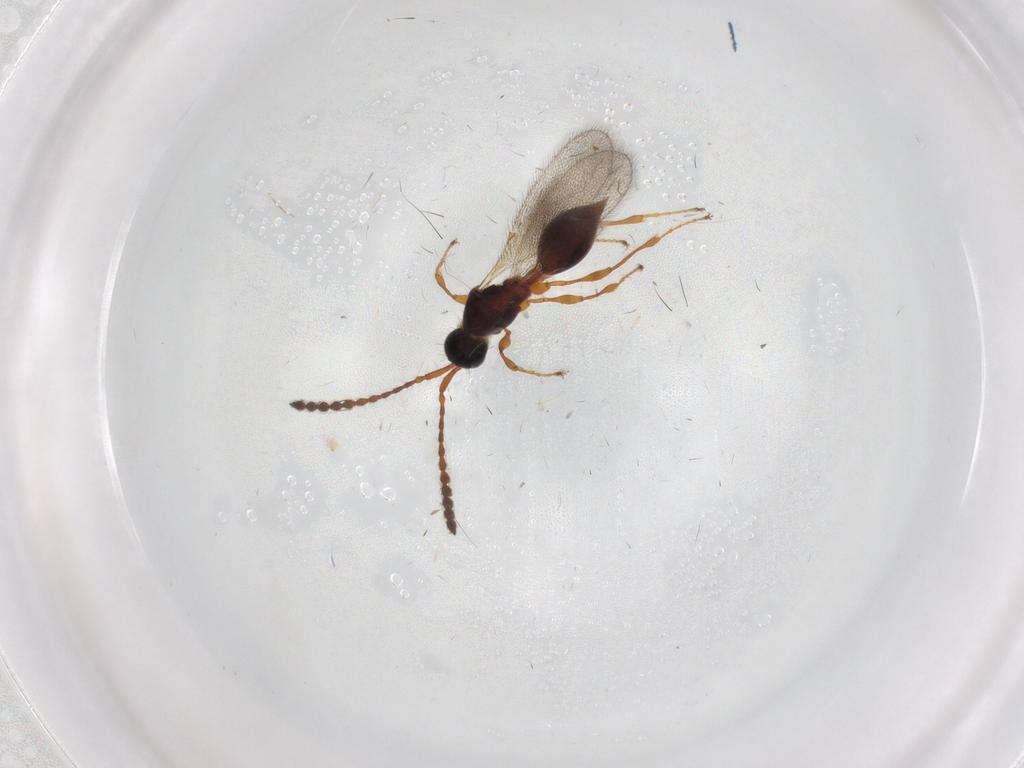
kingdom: Animalia
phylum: Arthropoda
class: Insecta
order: Hymenoptera
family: Diapriidae
